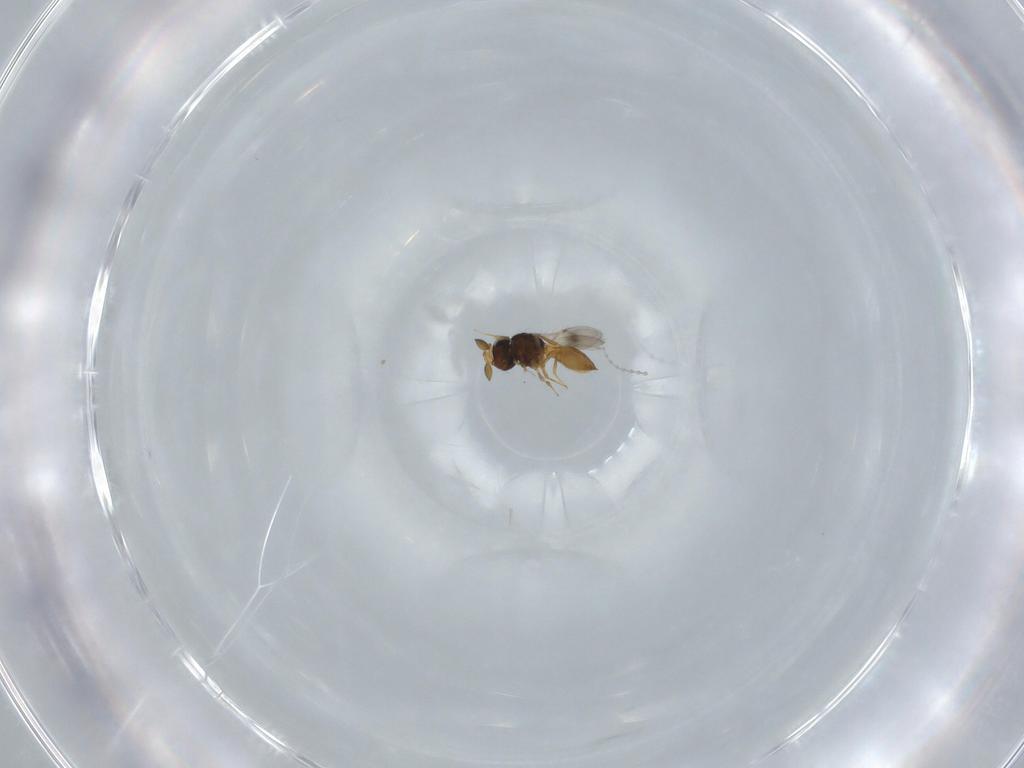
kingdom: Animalia
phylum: Arthropoda
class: Insecta
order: Hymenoptera
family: Scelionidae
